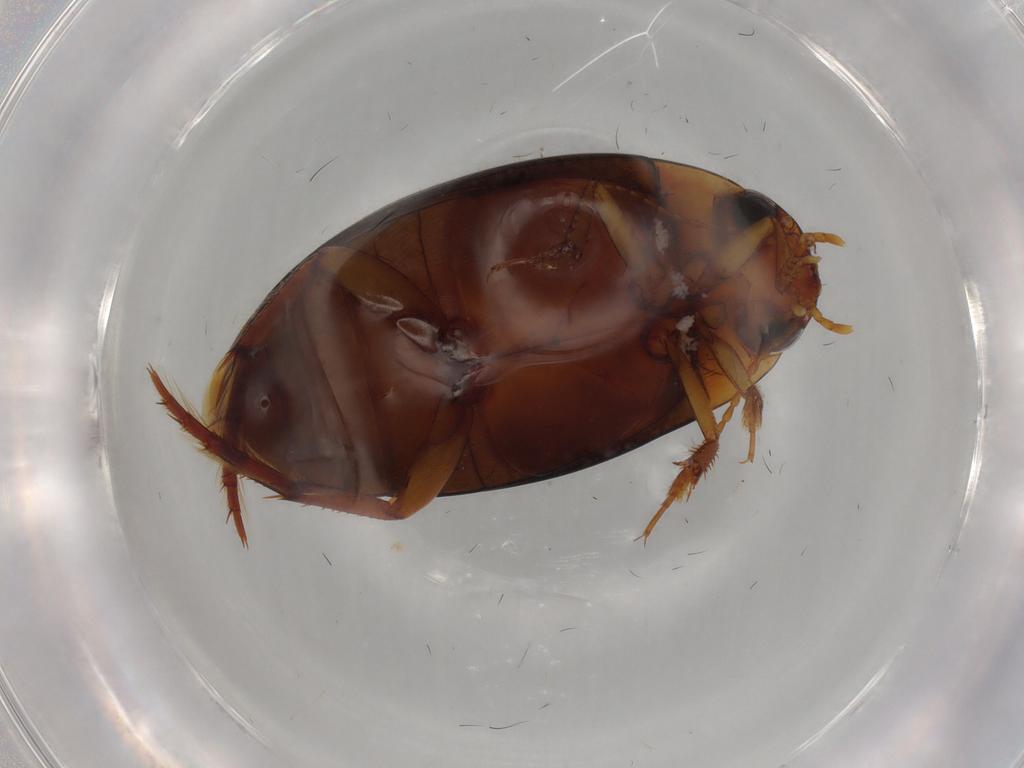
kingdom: Animalia
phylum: Arthropoda
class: Insecta
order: Coleoptera
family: Dytiscidae
